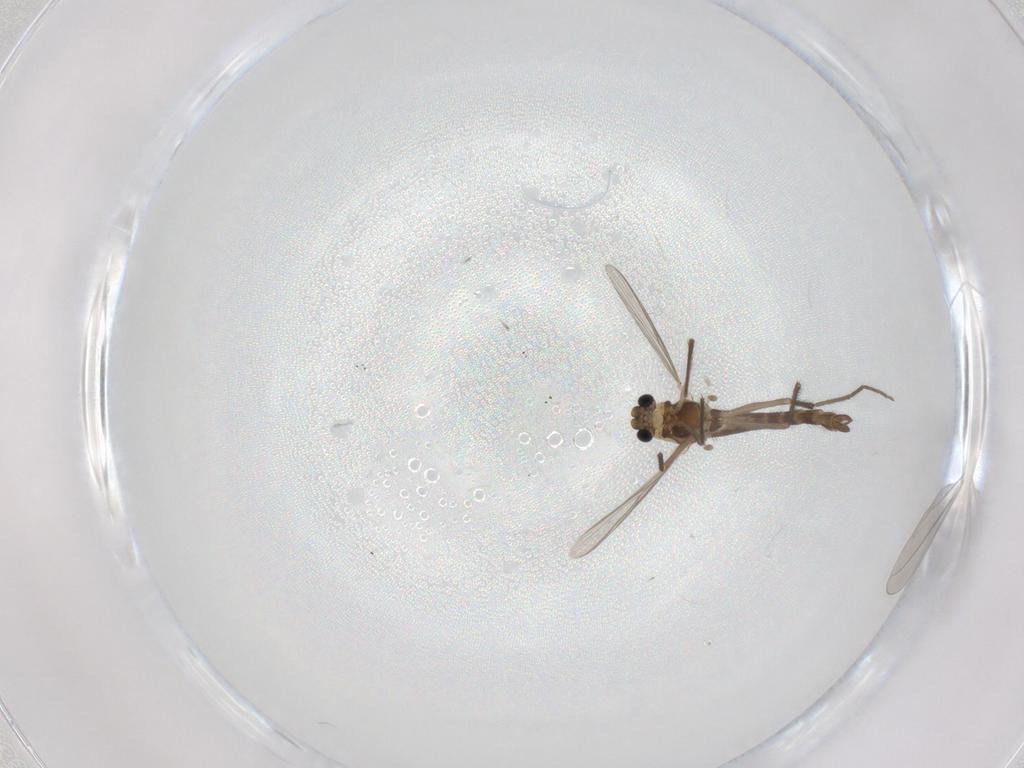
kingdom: Animalia
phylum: Arthropoda
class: Insecta
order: Diptera
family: Chironomidae
